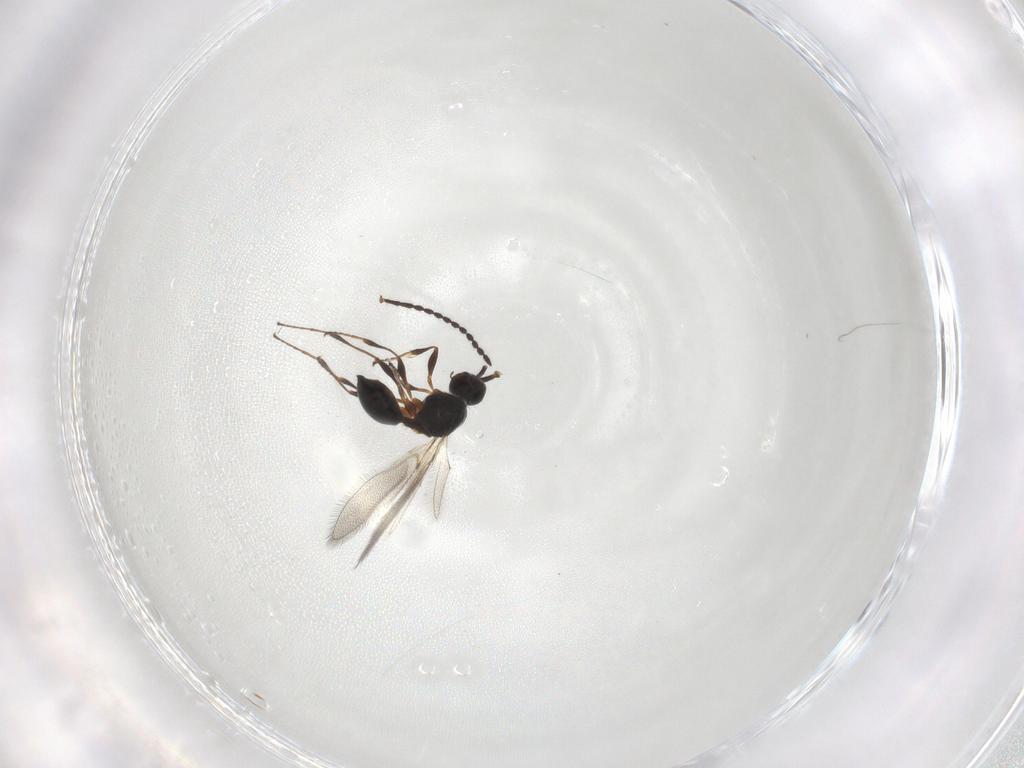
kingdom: Animalia
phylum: Arthropoda
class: Insecta
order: Hymenoptera
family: Diapriidae
